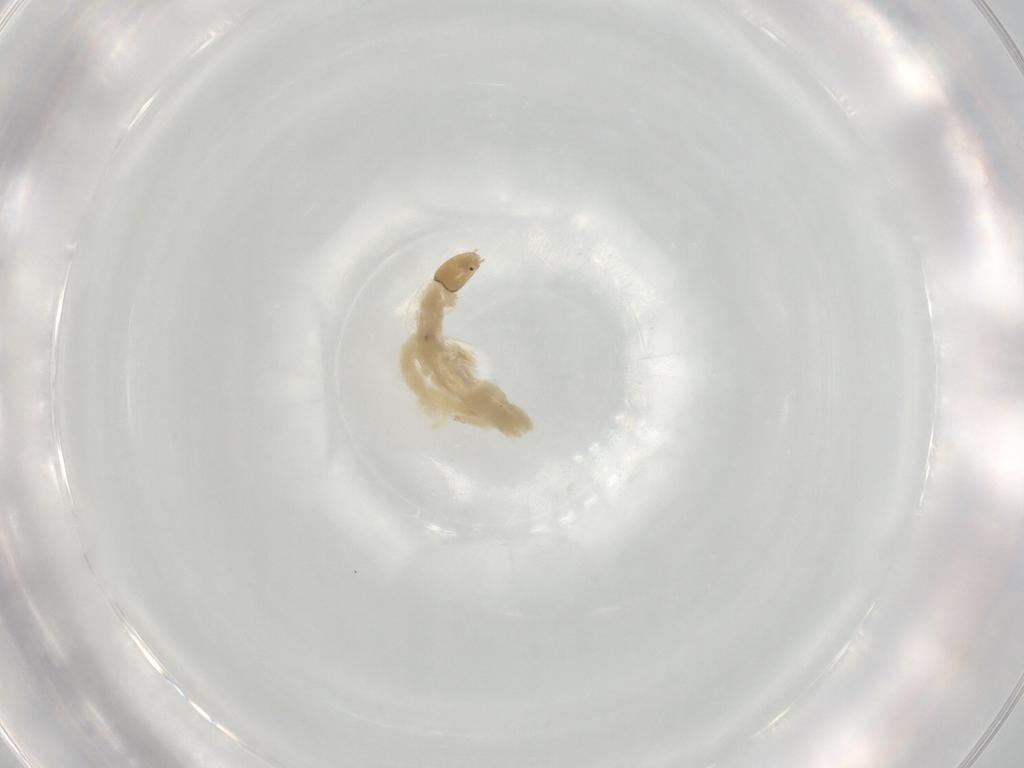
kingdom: Animalia
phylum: Arthropoda
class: Insecta
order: Diptera
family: Chironomidae
